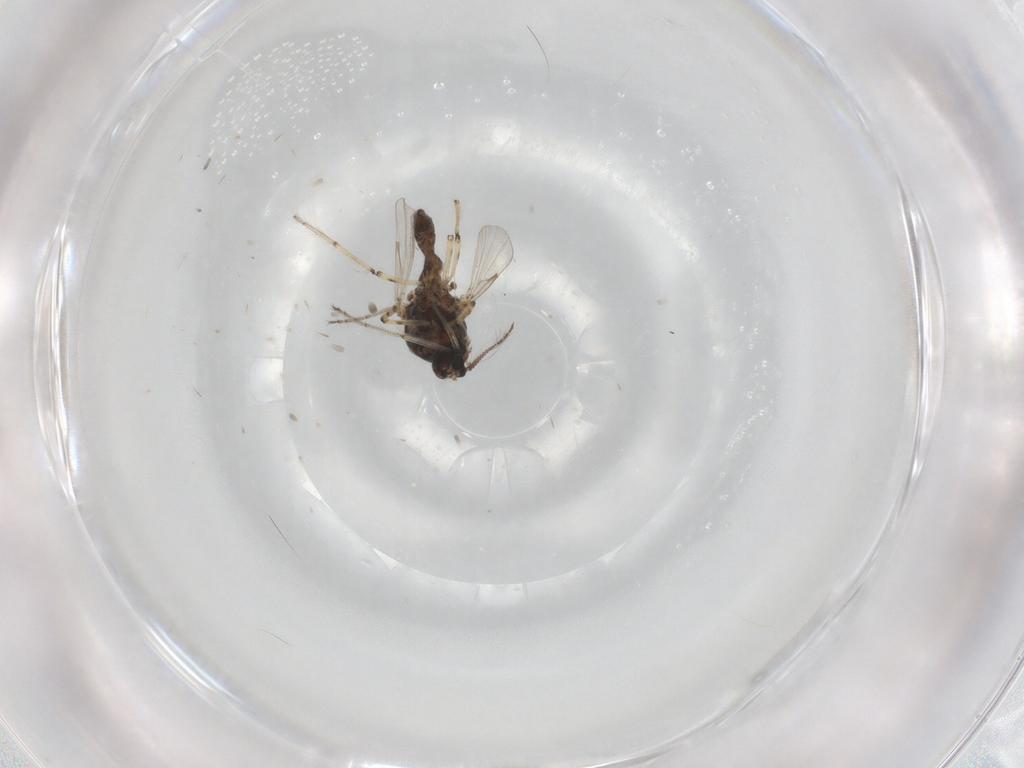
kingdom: Animalia
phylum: Arthropoda
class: Insecta
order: Diptera
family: Ceratopogonidae
